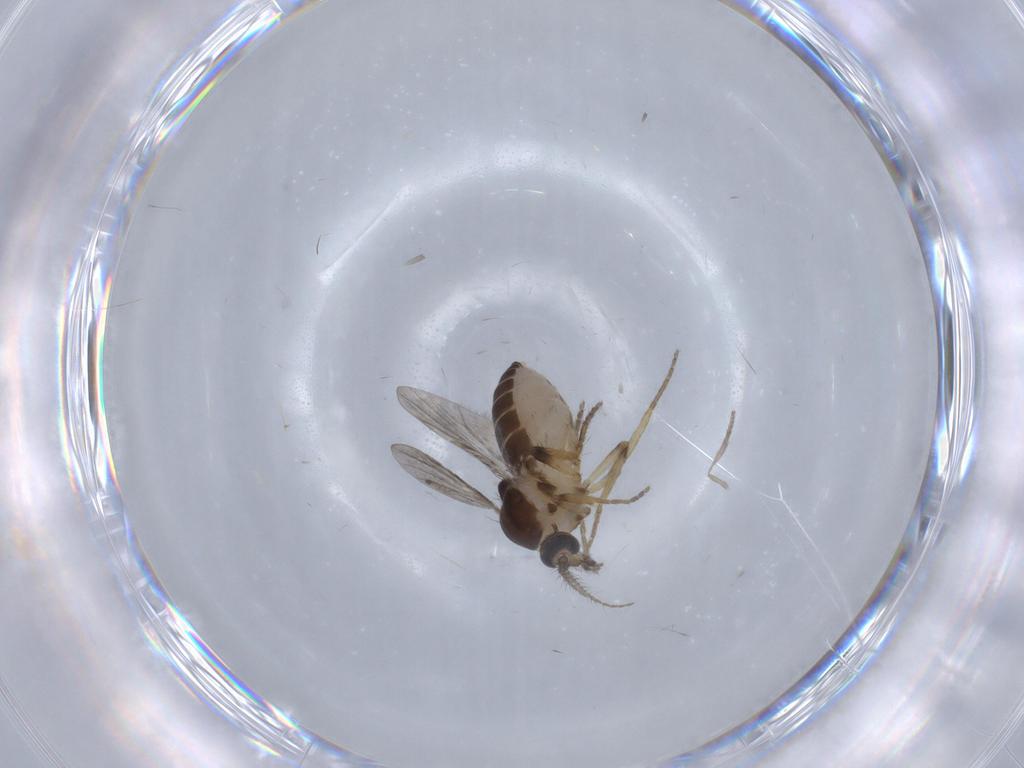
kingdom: Animalia
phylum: Arthropoda
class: Insecta
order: Diptera
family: Ceratopogonidae
